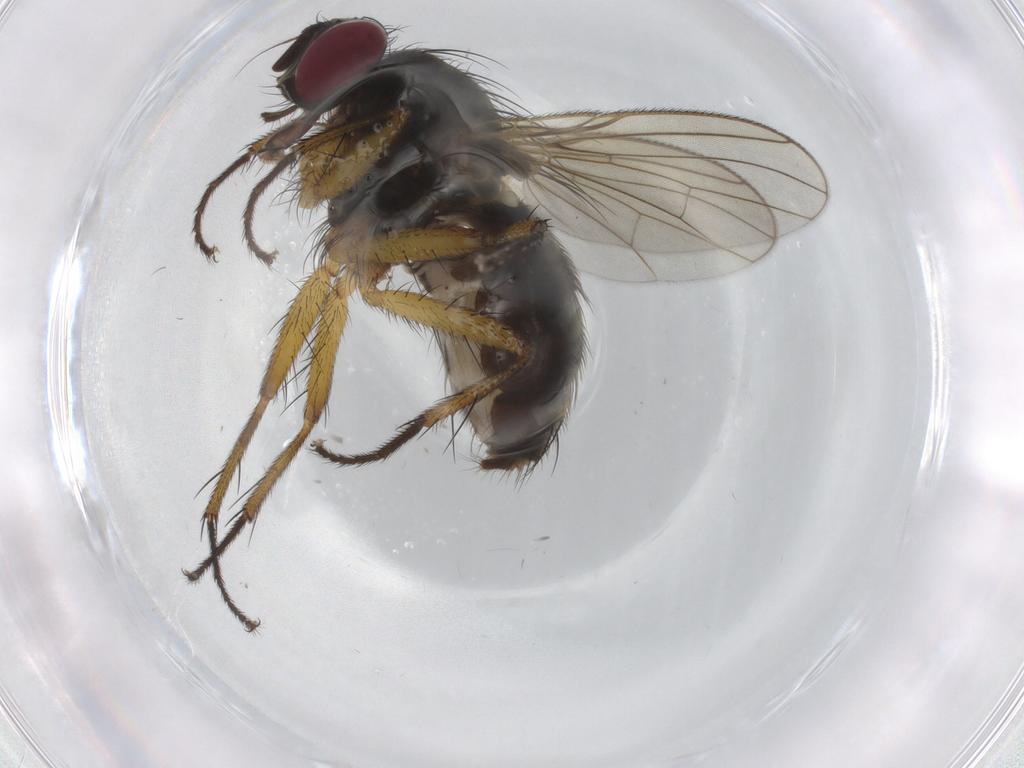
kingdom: Animalia
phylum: Arthropoda
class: Insecta
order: Diptera
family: Muscidae
